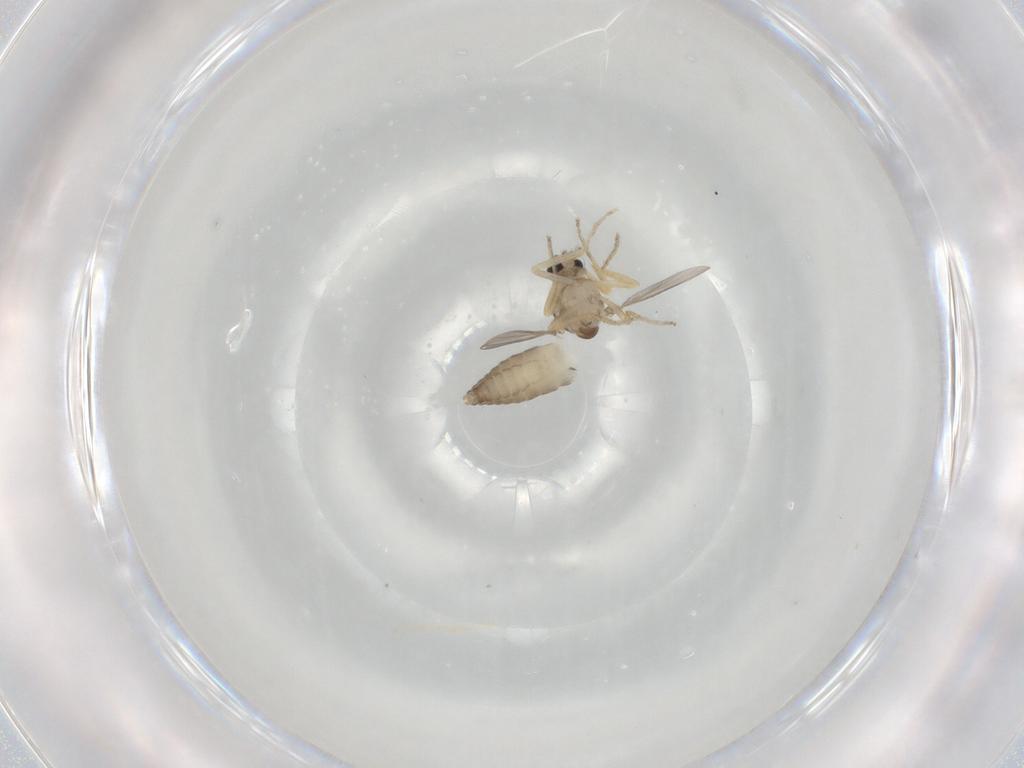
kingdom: Animalia
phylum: Arthropoda
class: Insecta
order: Diptera
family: Ceratopogonidae
